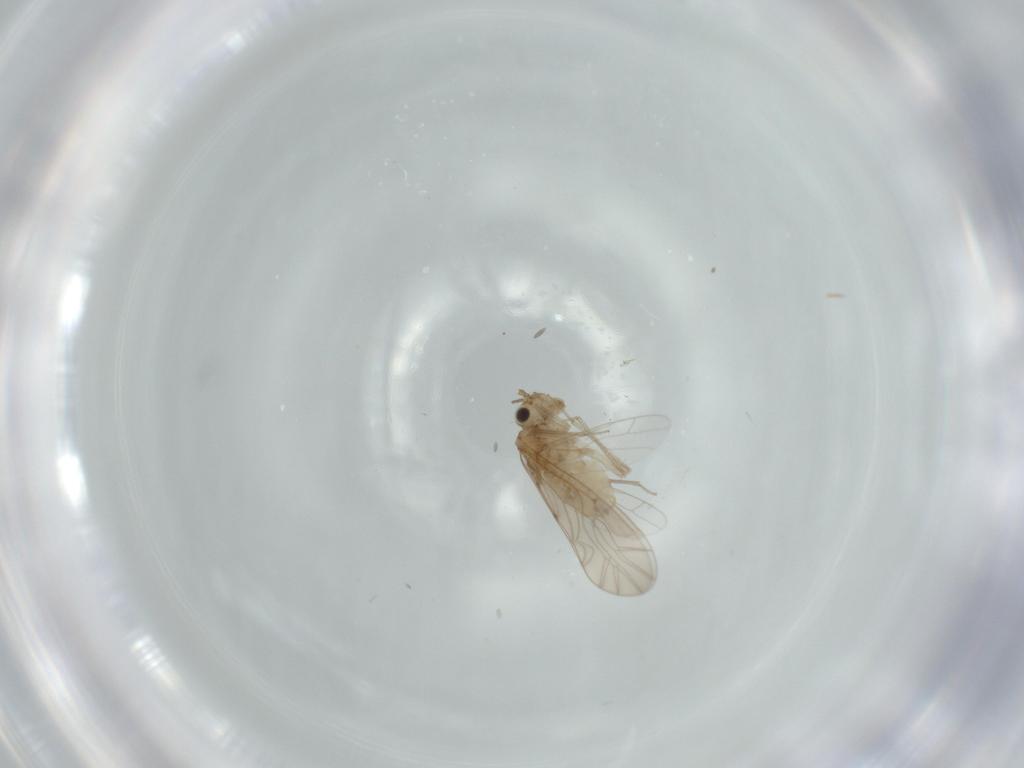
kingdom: Animalia
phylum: Arthropoda
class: Insecta
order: Psocodea
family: Lachesillidae
